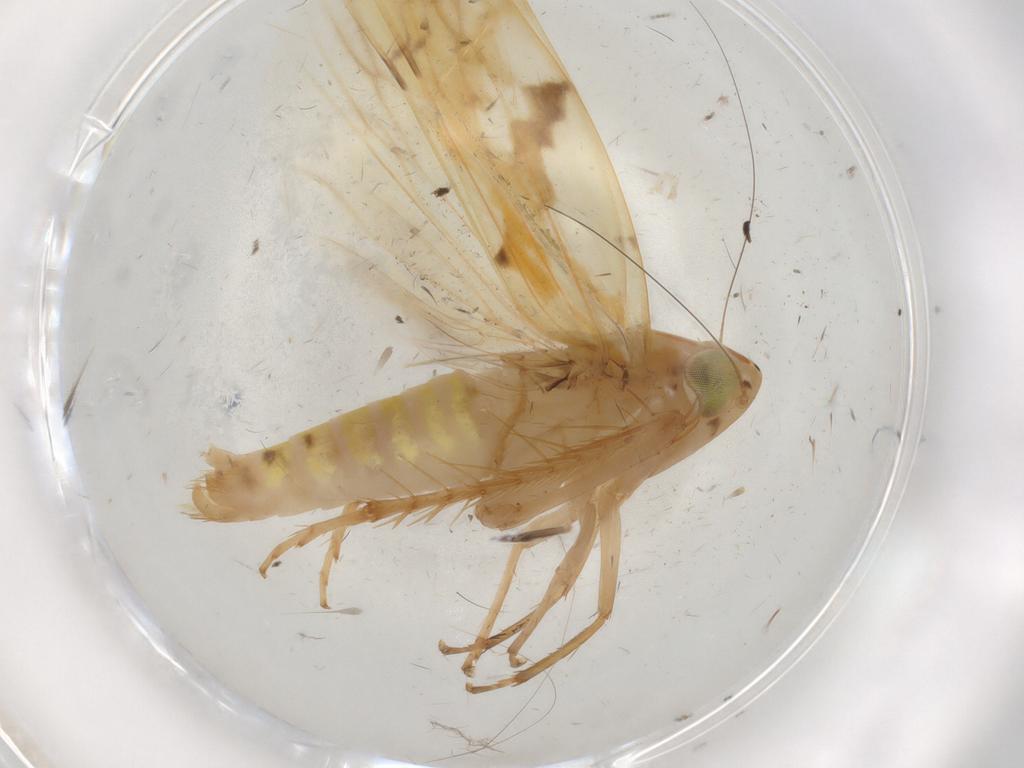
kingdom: Animalia
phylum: Arthropoda
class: Insecta
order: Hemiptera
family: Cicadellidae
